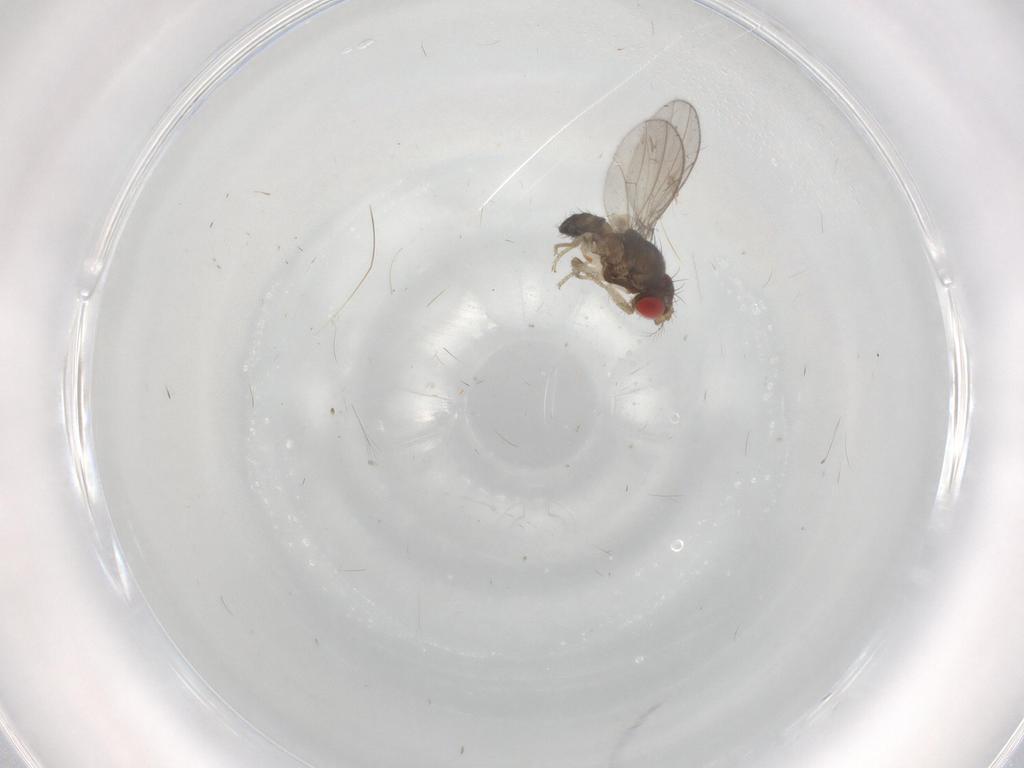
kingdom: Animalia
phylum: Arthropoda
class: Insecta
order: Diptera
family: Drosophilidae
